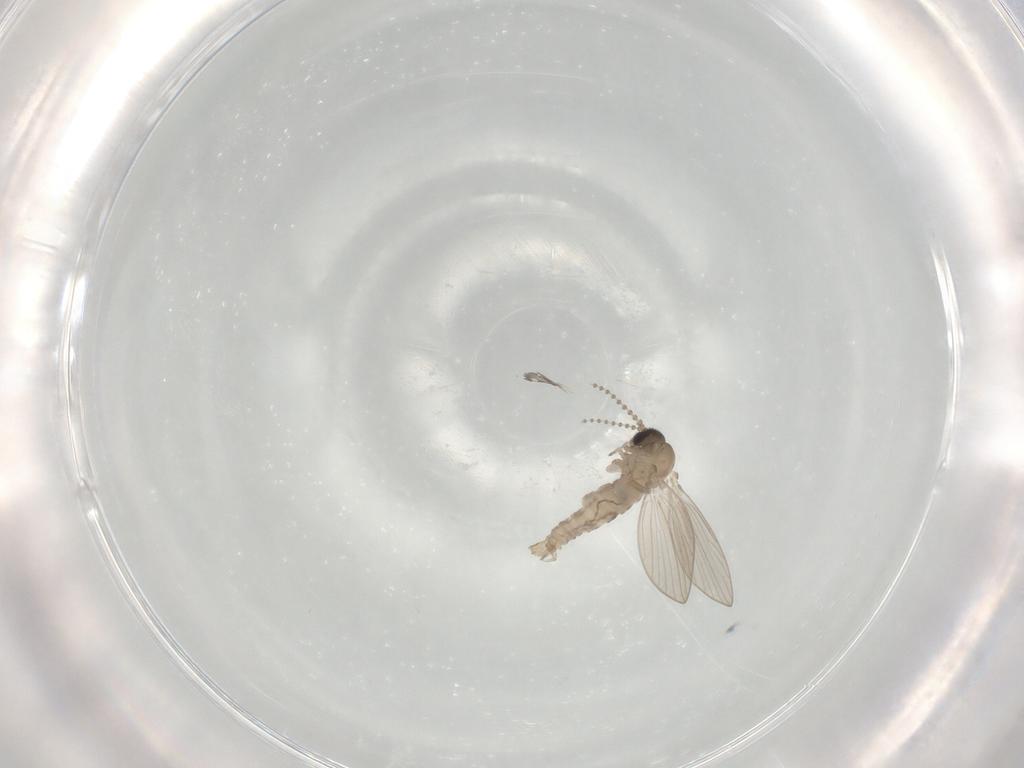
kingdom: Animalia
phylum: Arthropoda
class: Insecta
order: Diptera
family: Psychodidae
